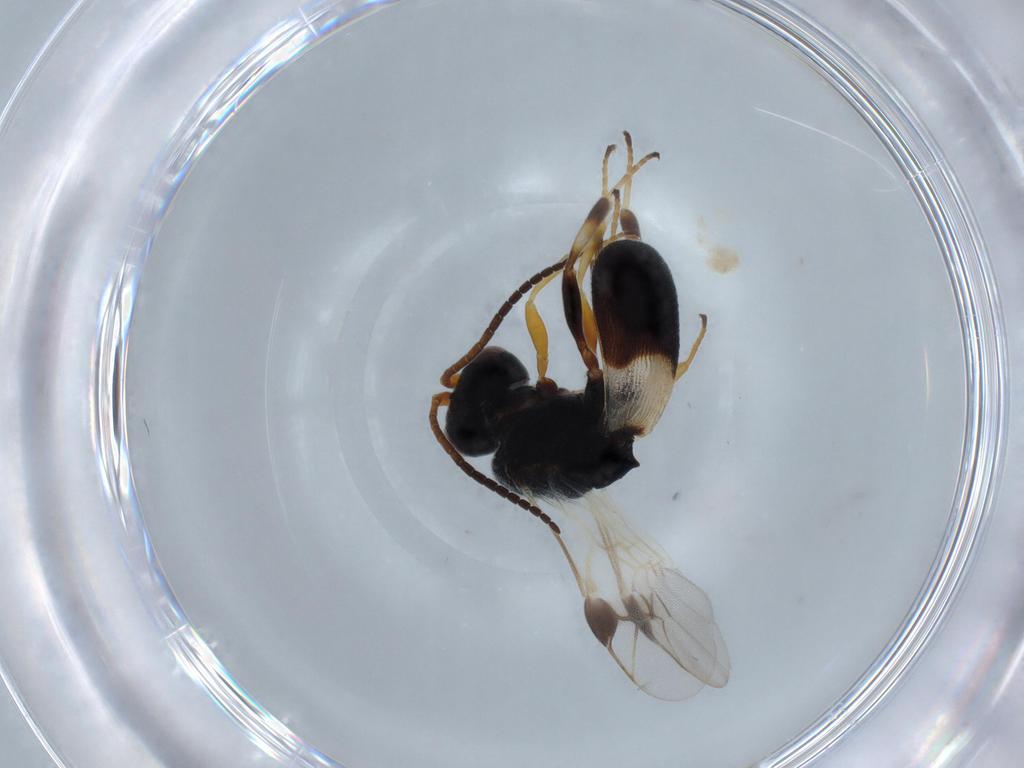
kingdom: Animalia
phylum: Arthropoda
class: Insecta
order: Hymenoptera
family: Braconidae
